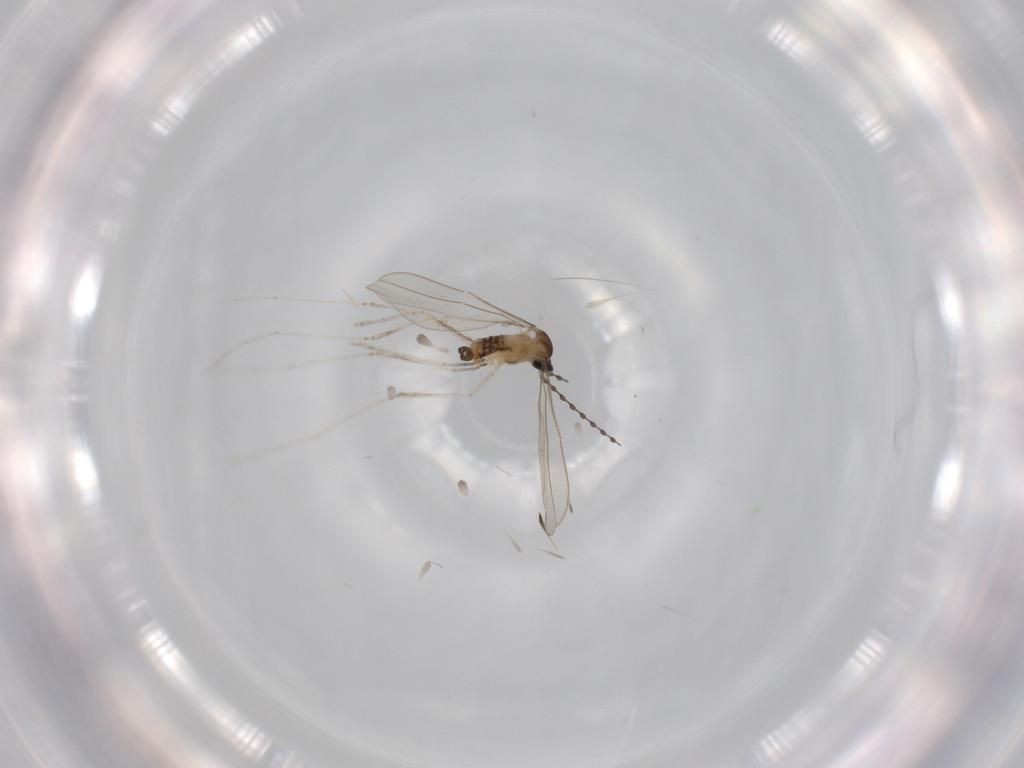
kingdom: Animalia
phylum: Arthropoda
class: Insecta
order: Diptera
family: Cecidomyiidae
